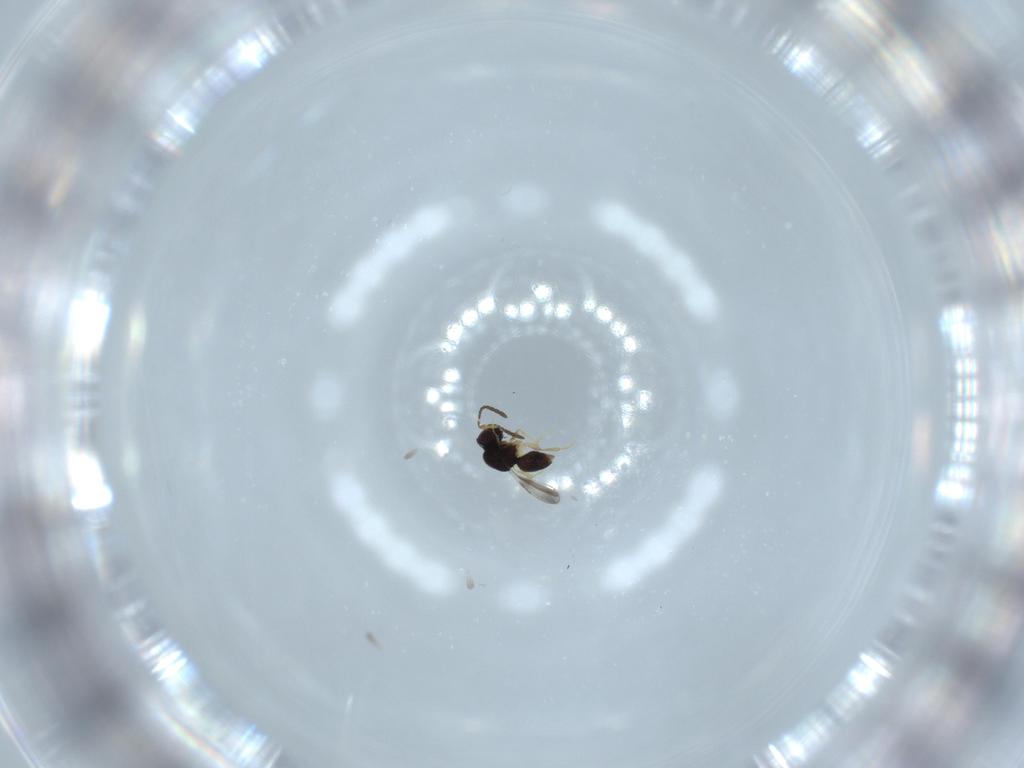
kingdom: Animalia
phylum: Arthropoda
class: Insecta
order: Hymenoptera
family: Ceraphronidae
